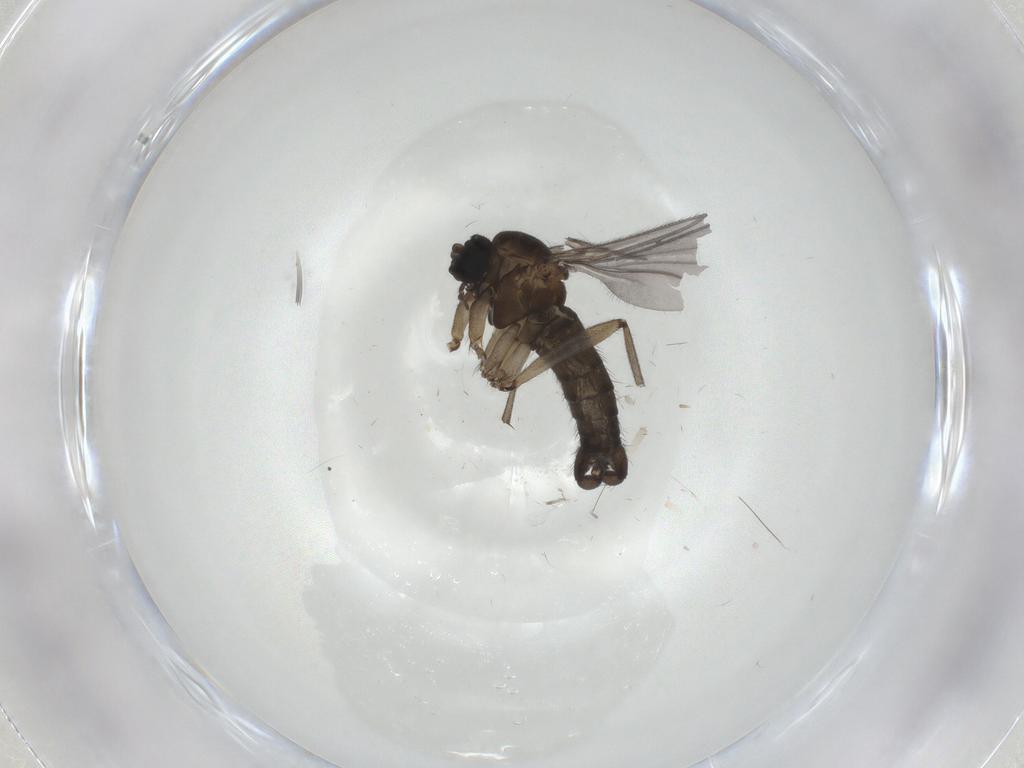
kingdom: Animalia
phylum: Arthropoda
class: Insecta
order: Diptera
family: Sciaridae
